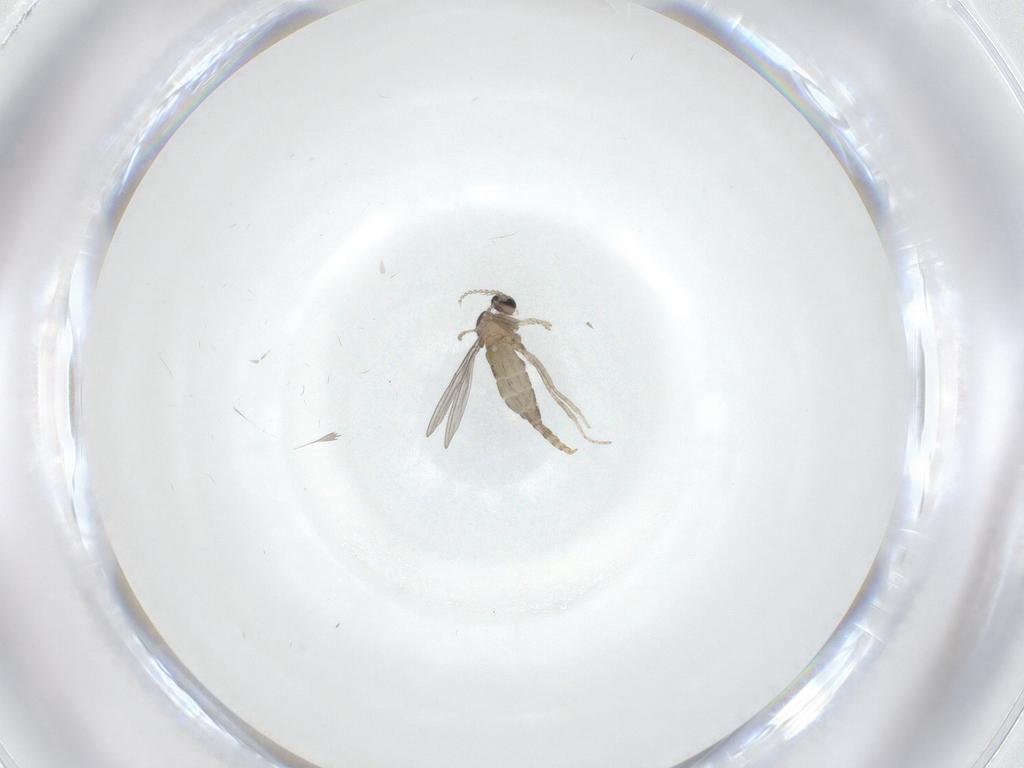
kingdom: Animalia
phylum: Arthropoda
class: Insecta
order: Diptera
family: Cecidomyiidae
